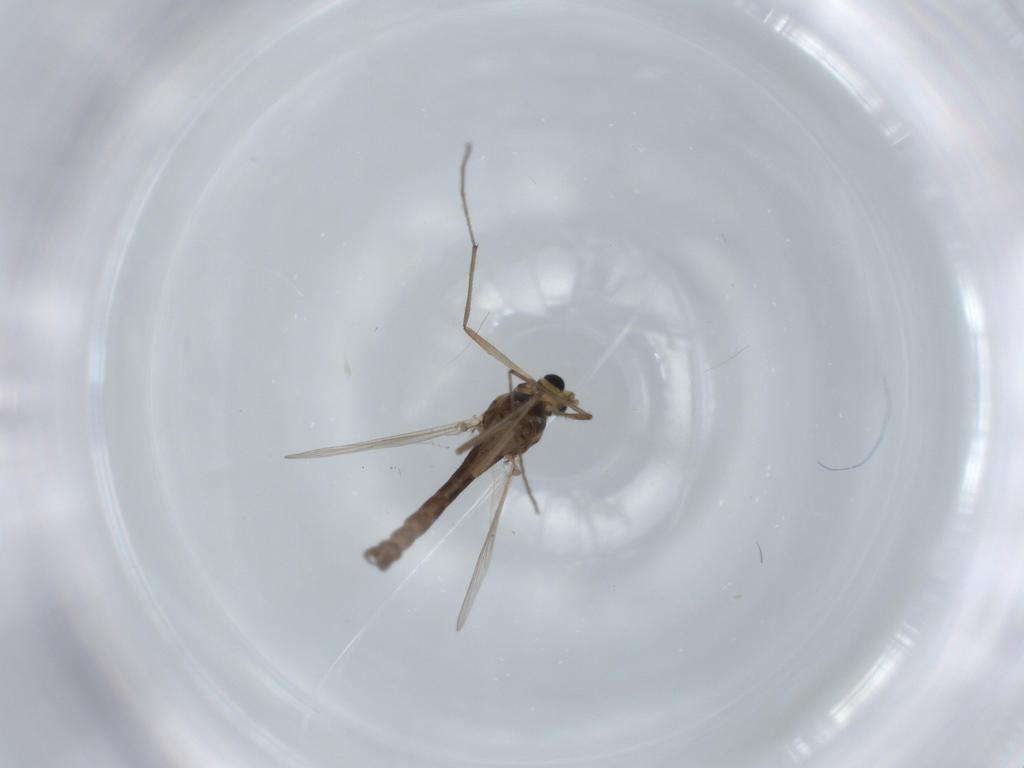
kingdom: Animalia
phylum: Arthropoda
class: Insecta
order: Diptera
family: Chironomidae
